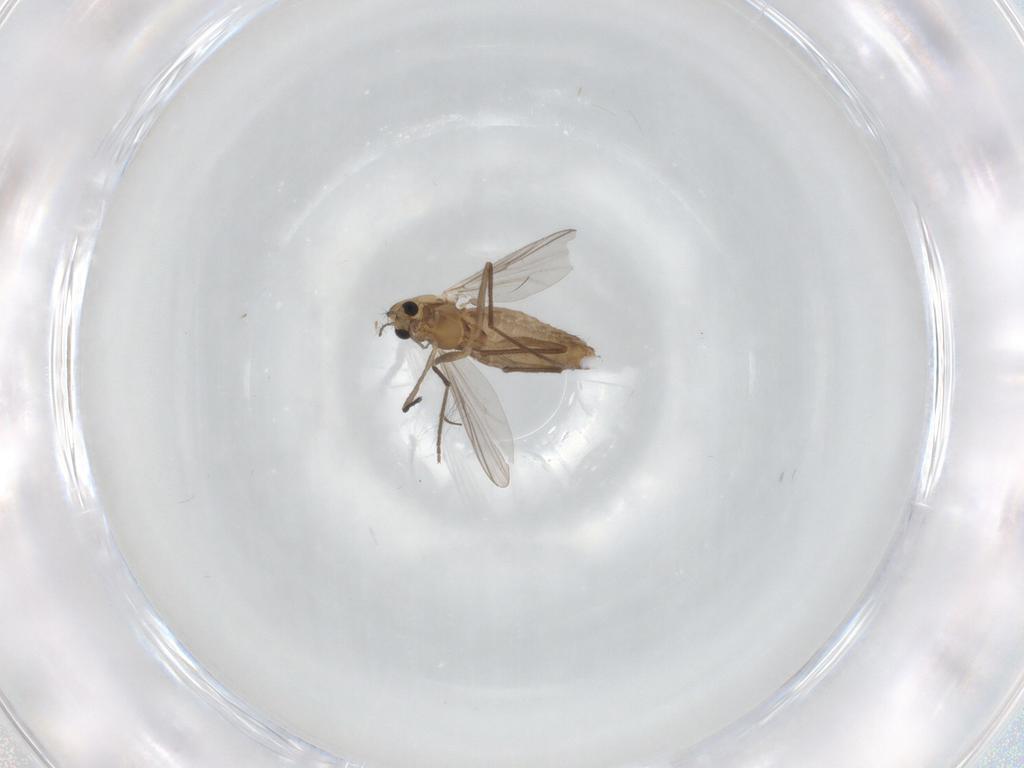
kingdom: Animalia
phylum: Arthropoda
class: Insecta
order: Diptera
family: Chironomidae
